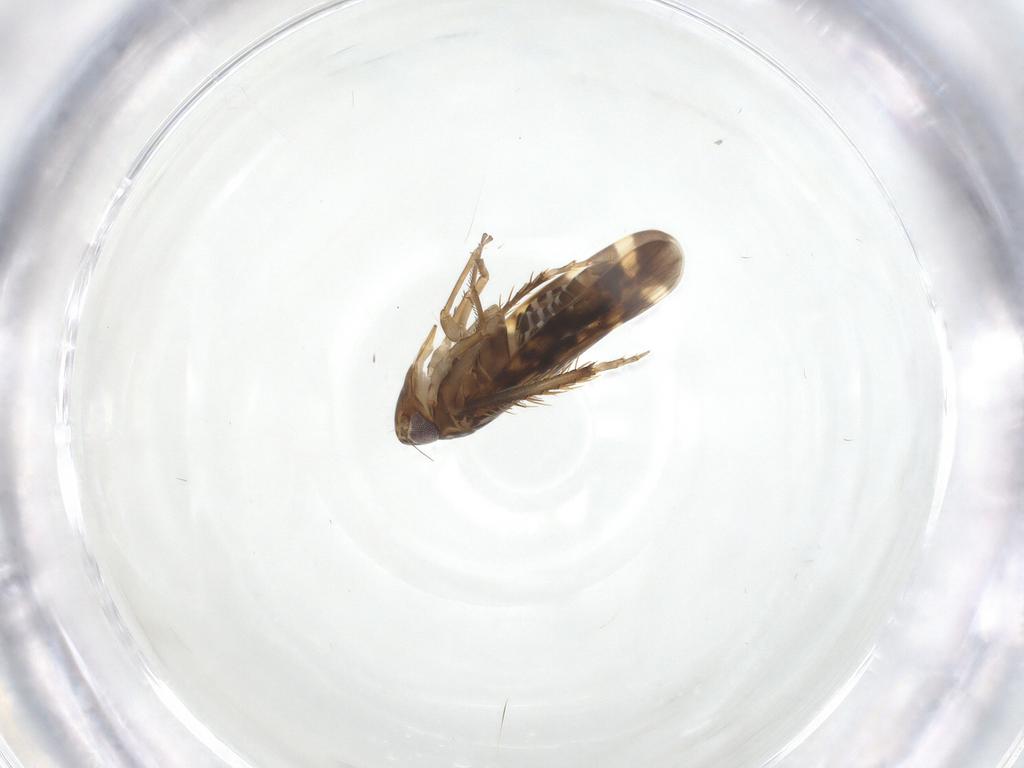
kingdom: Animalia
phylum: Arthropoda
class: Insecta
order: Hemiptera
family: Cicadellidae
